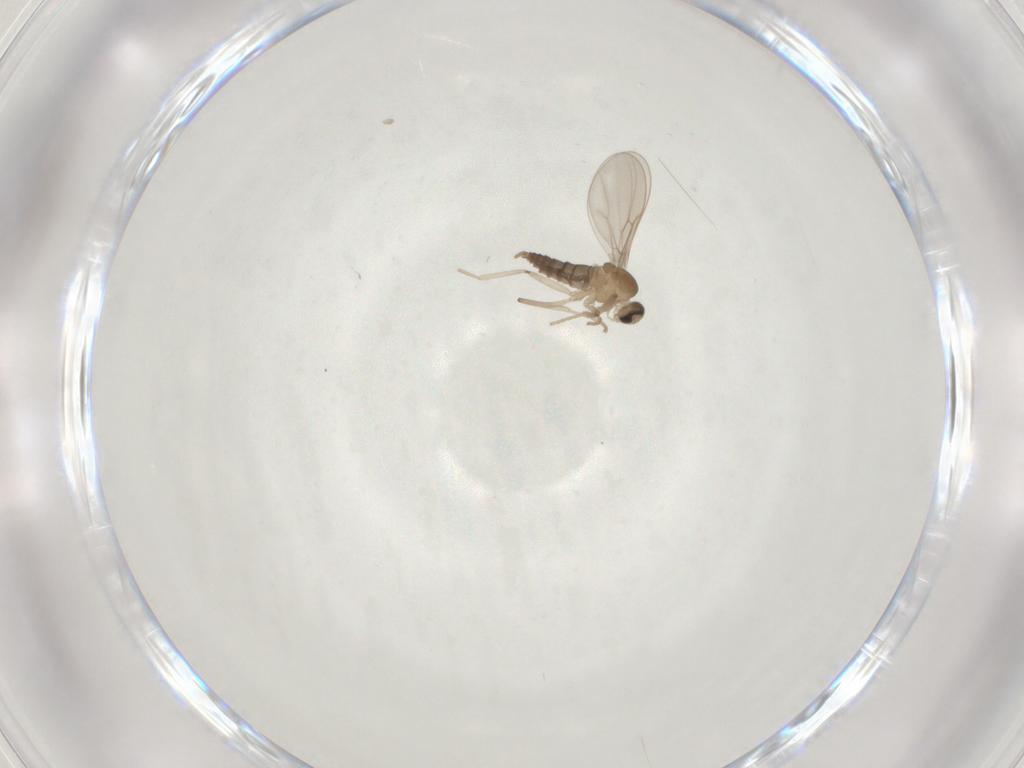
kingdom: Animalia
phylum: Arthropoda
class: Insecta
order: Diptera
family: Cecidomyiidae
